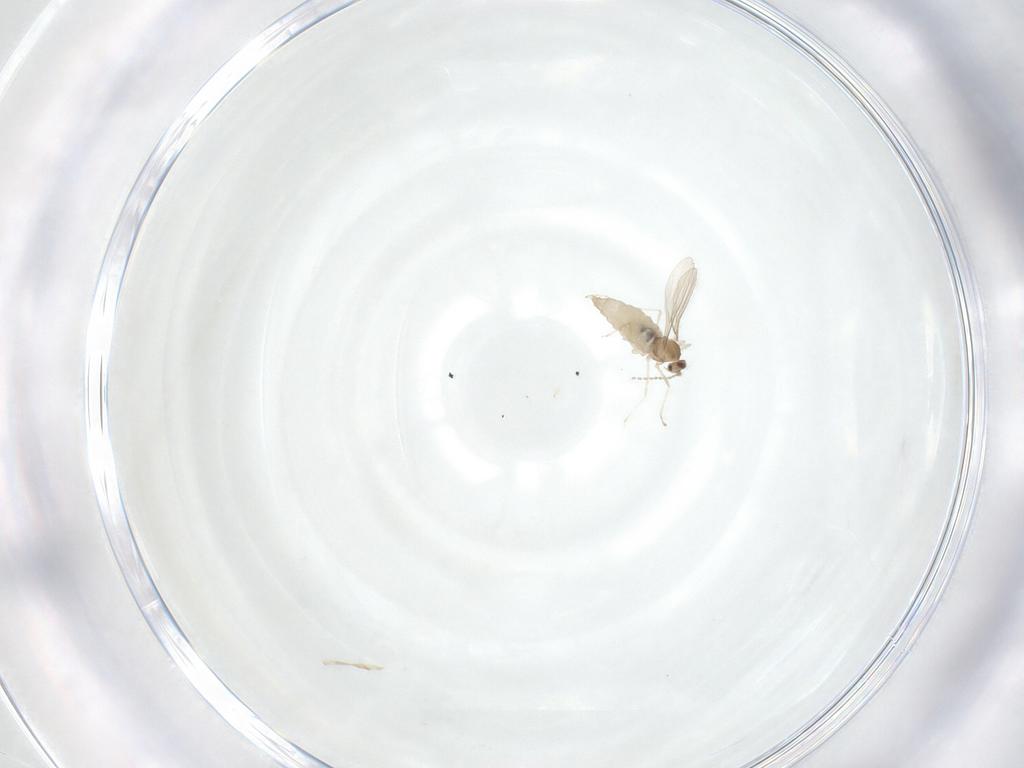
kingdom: Animalia
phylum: Arthropoda
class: Insecta
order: Diptera
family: Cecidomyiidae
